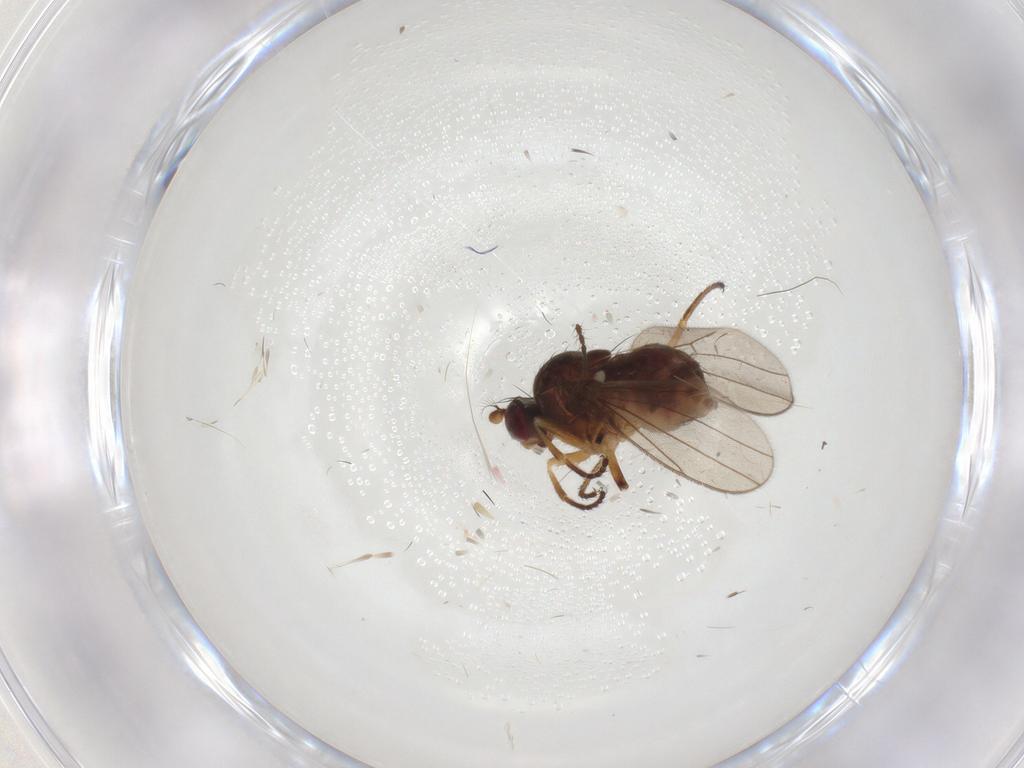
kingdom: Animalia
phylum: Arthropoda
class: Insecta
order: Diptera
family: Ephydridae
